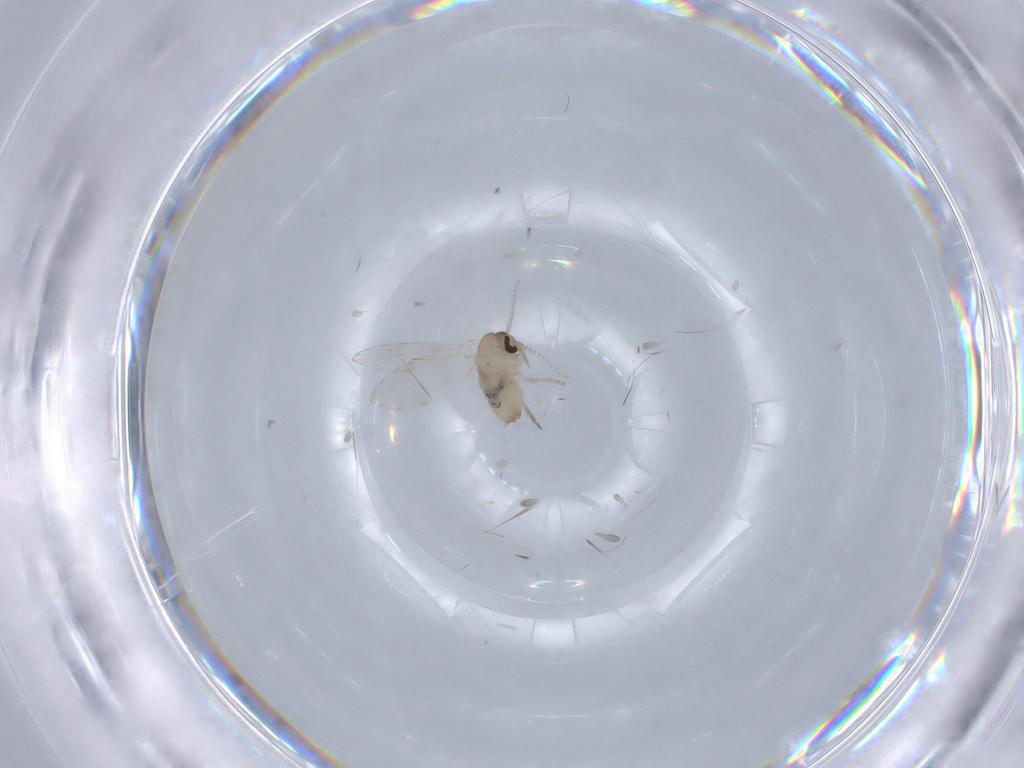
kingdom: Animalia
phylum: Arthropoda
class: Insecta
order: Diptera
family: Psychodidae
